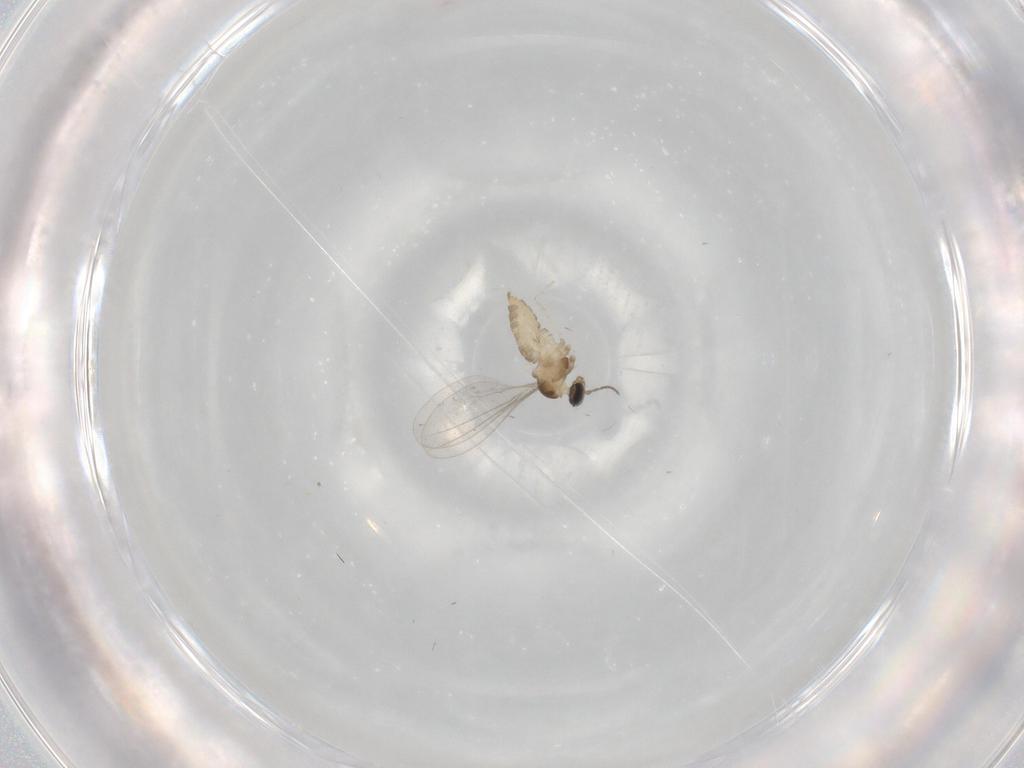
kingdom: Animalia
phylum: Arthropoda
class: Insecta
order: Diptera
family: Cecidomyiidae
